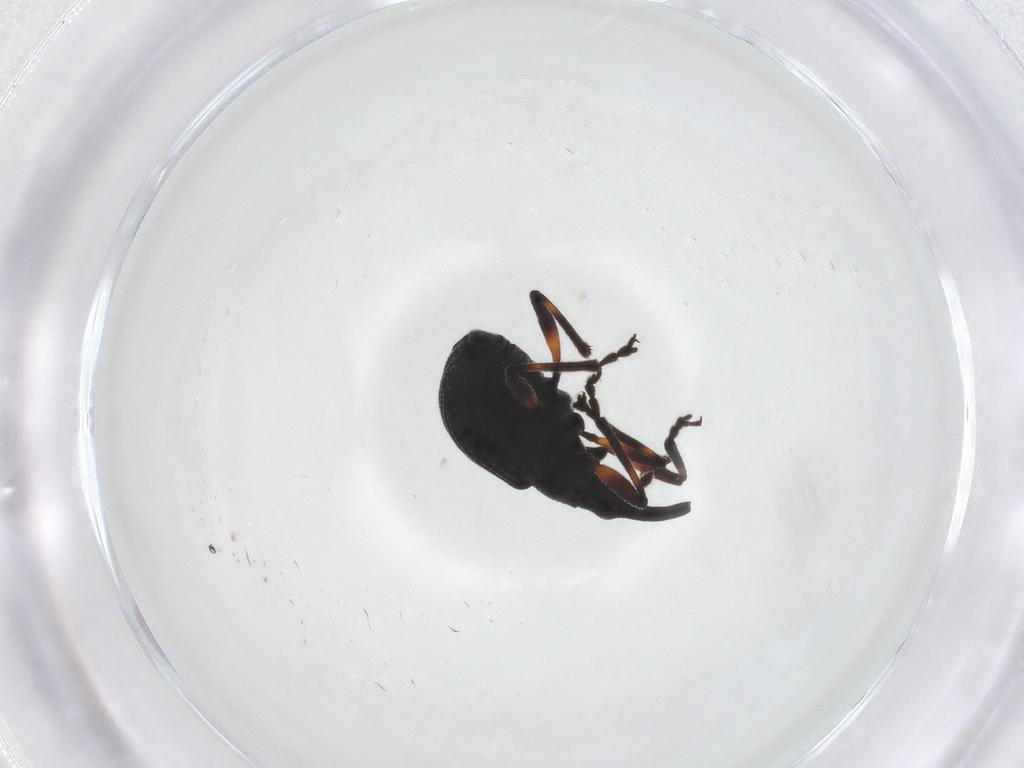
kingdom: Animalia
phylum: Arthropoda
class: Insecta
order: Coleoptera
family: Brentidae
